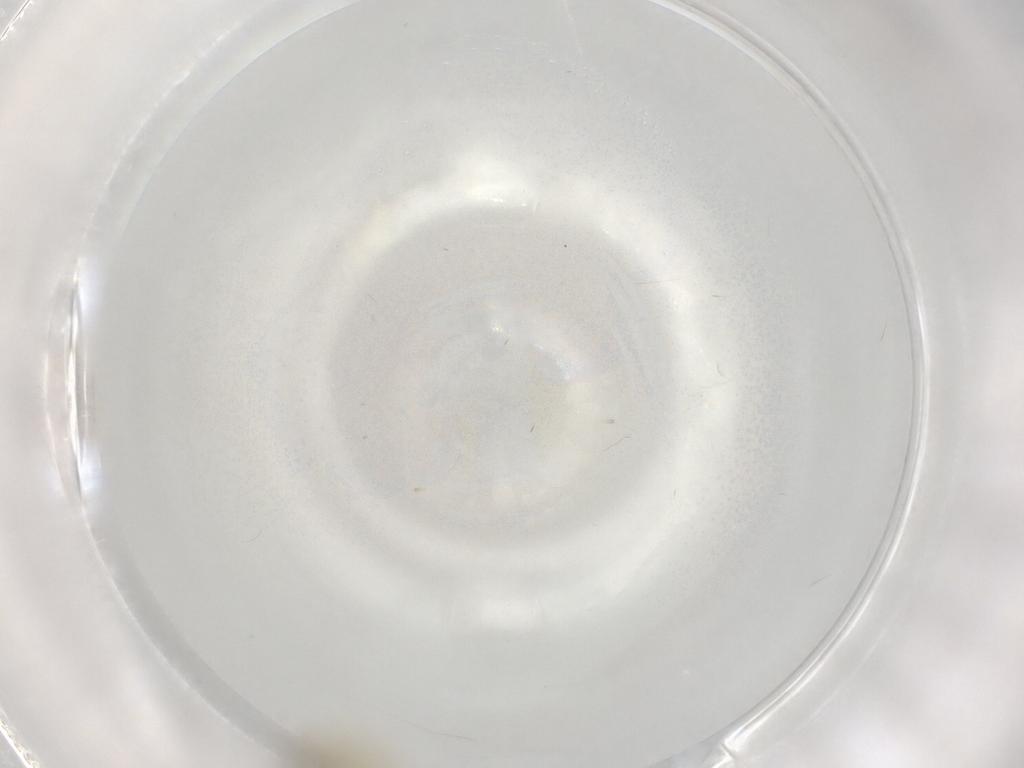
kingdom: Animalia
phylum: Arthropoda
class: Insecta
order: Diptera
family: Chironomidae
